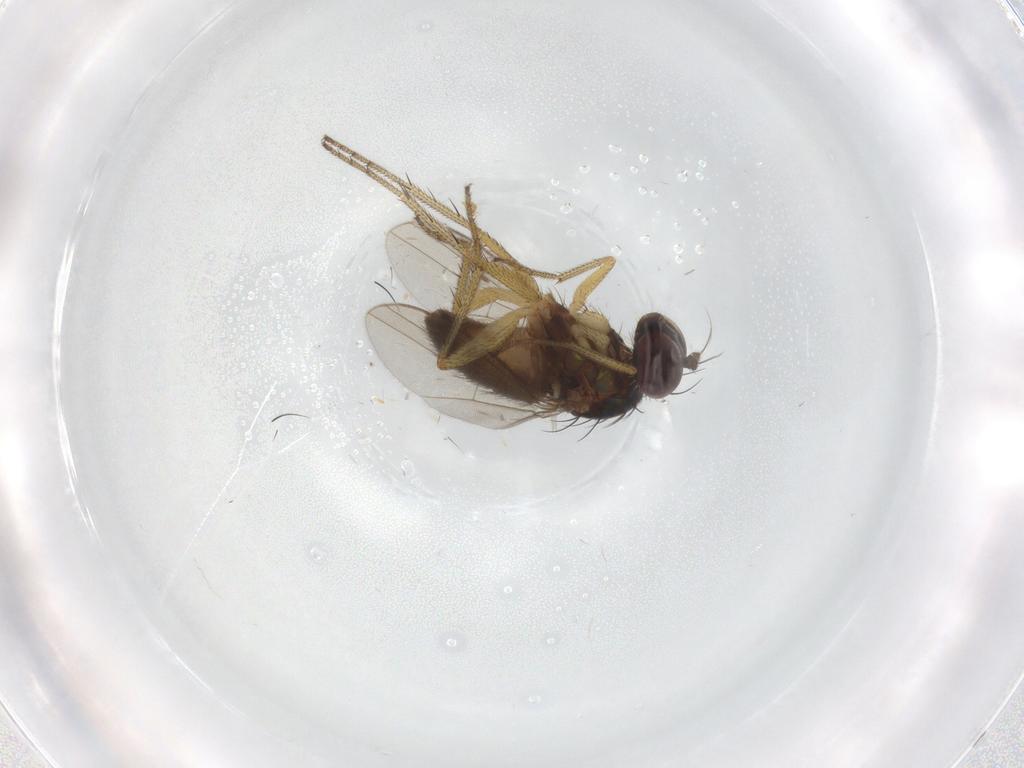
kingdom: Animalia
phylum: Arthropoda
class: Insecta
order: Diptera
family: Dolichopodidae
